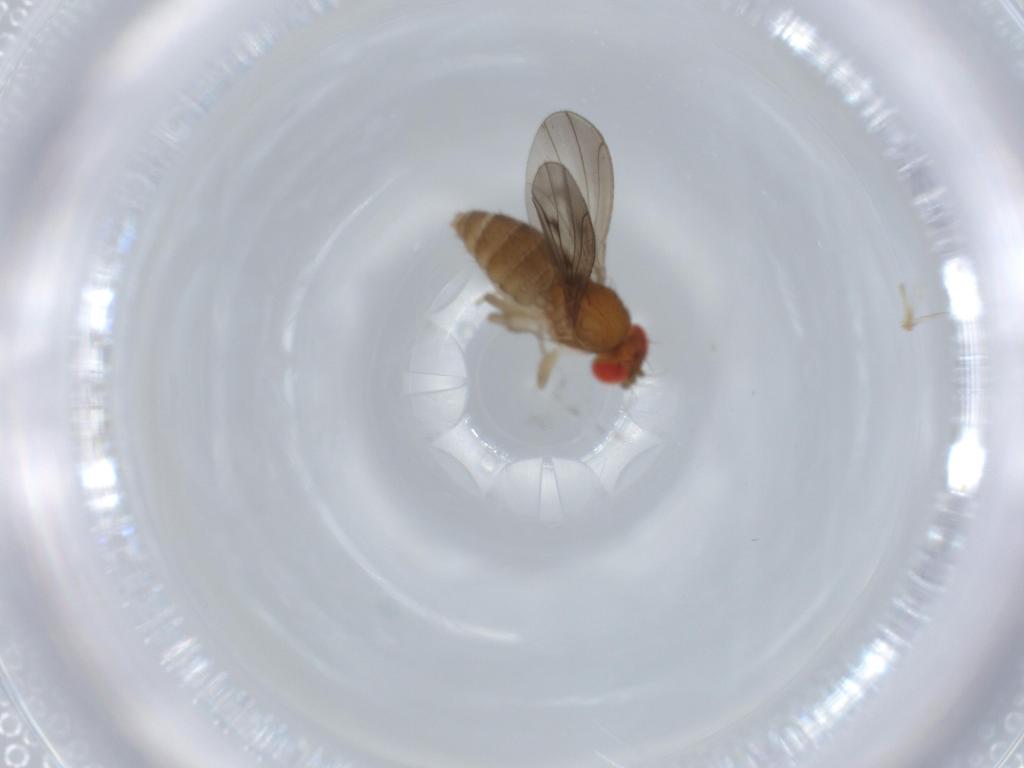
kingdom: Animalia
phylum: Arthropoda
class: Insecta
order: Diptera
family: Drosophilidae
